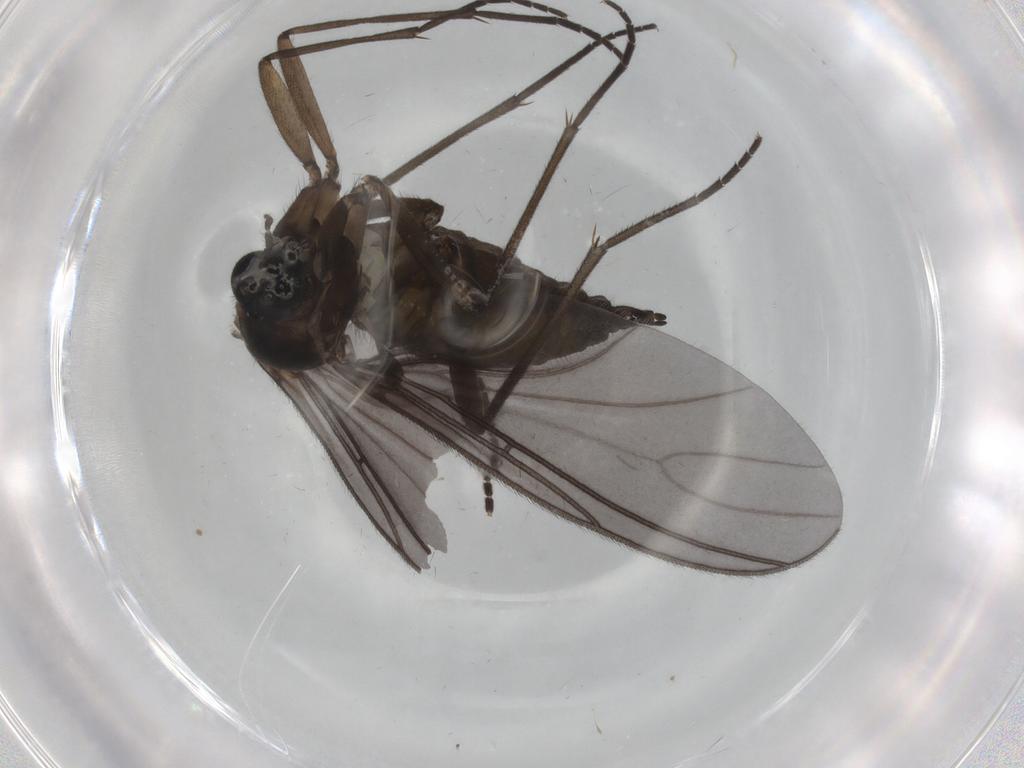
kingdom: Animalia
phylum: Arthropoda
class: Insecta
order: Diptera
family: Sciaridae
